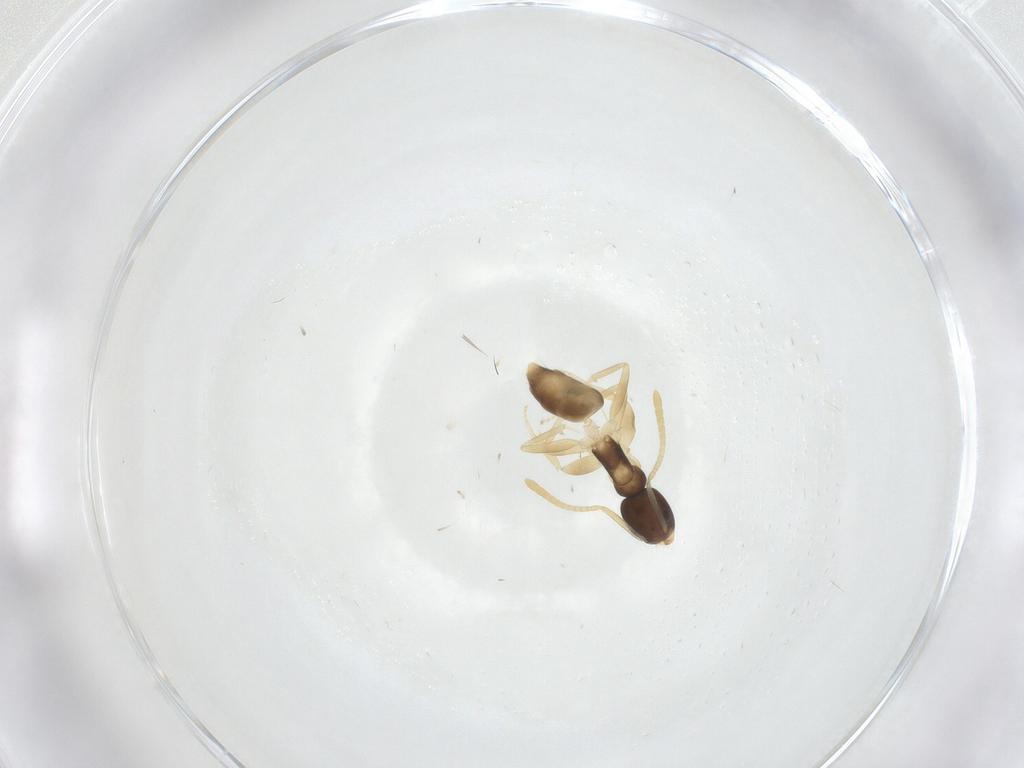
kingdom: Animalia
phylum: Arthropoda
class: Insecta
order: Hymenoptera
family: Formicidae
